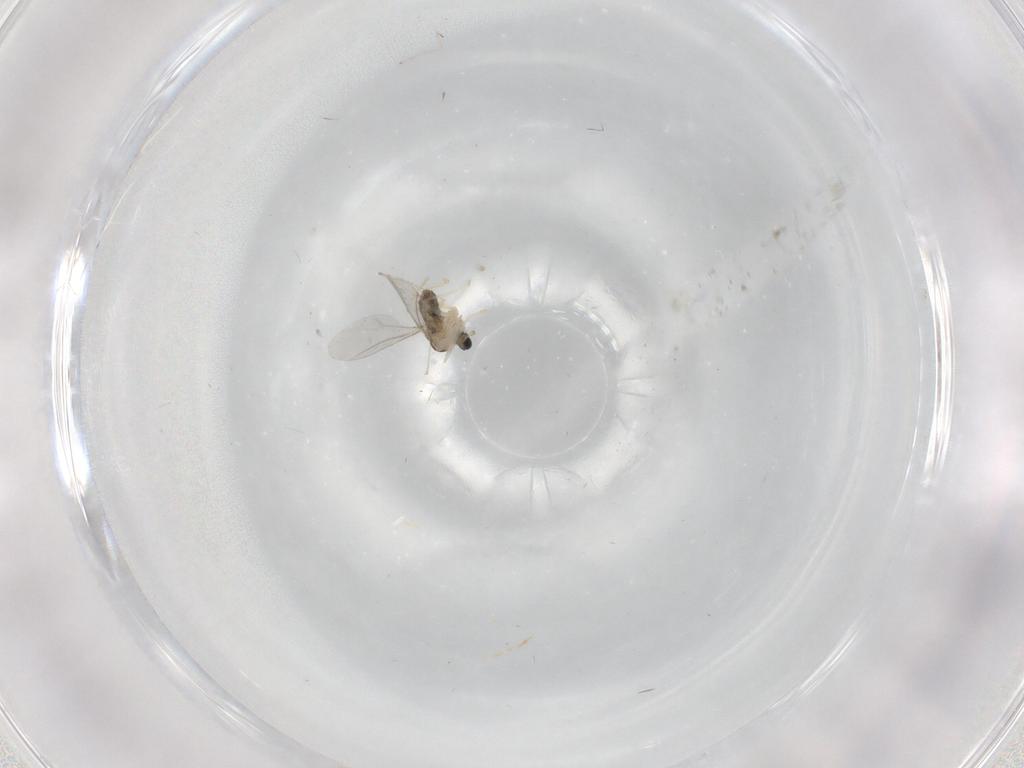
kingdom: Animalia
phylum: Arthropoda
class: Insecta
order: Diptera
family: Cecidomyiidae
